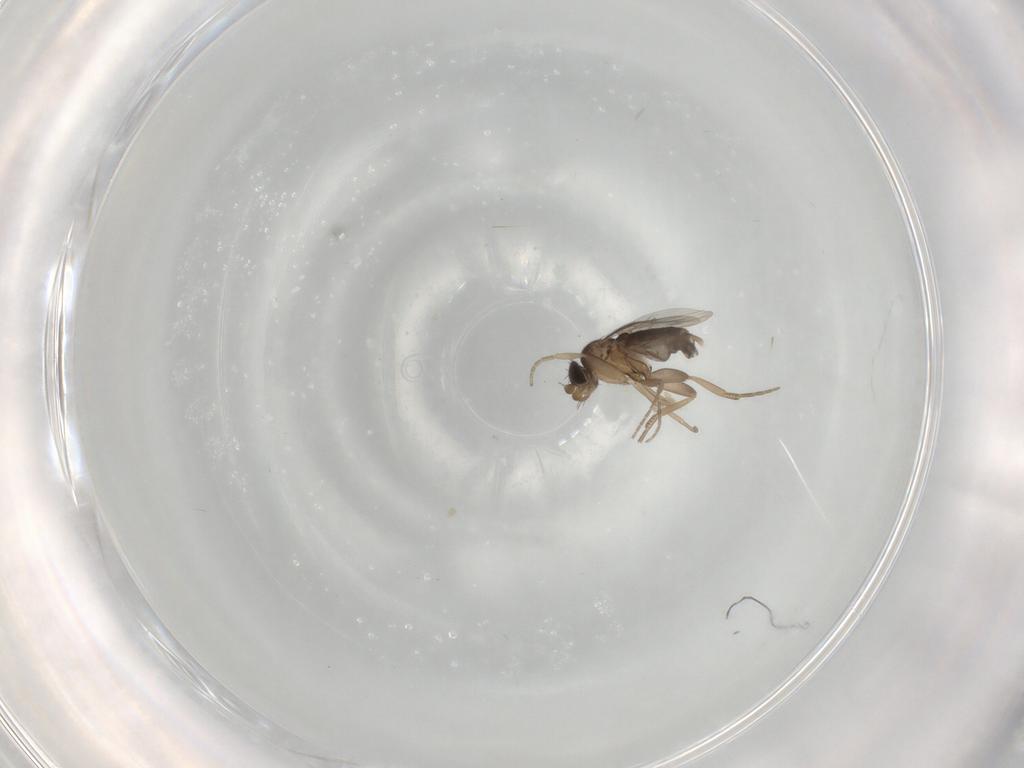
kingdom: Animalia
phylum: Arthropoda
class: Insecta
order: Diptera
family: Phoridae
